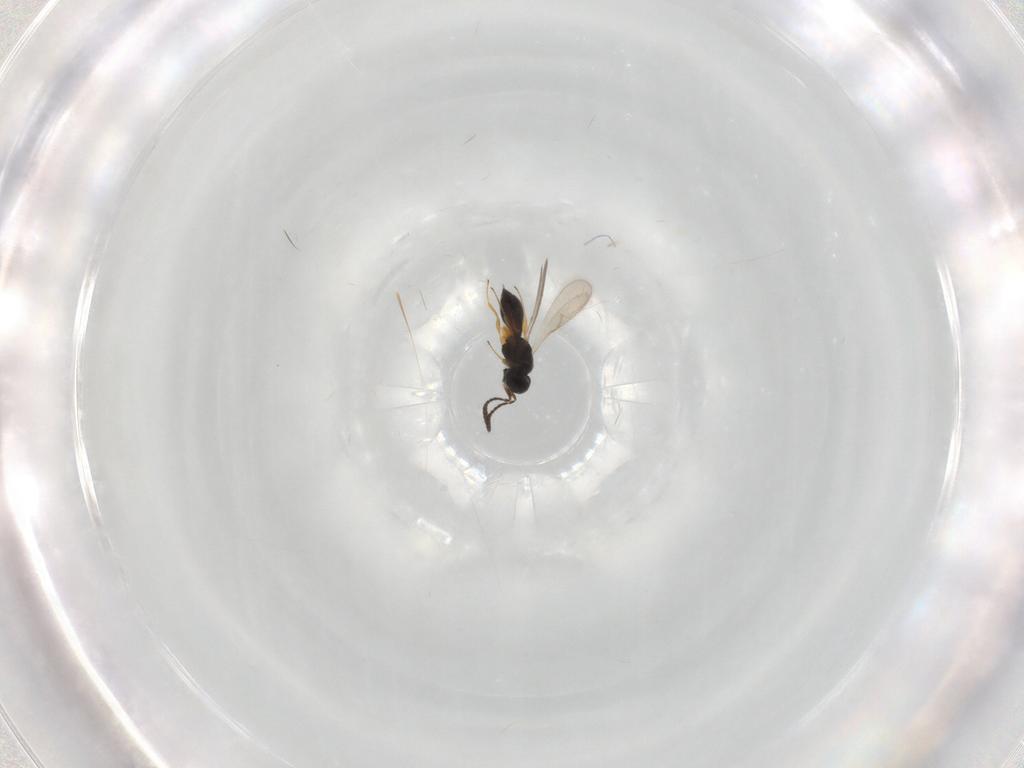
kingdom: Animalia
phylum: Arthropoda
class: Insecta
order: Hymenoptera
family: Scelionidae
